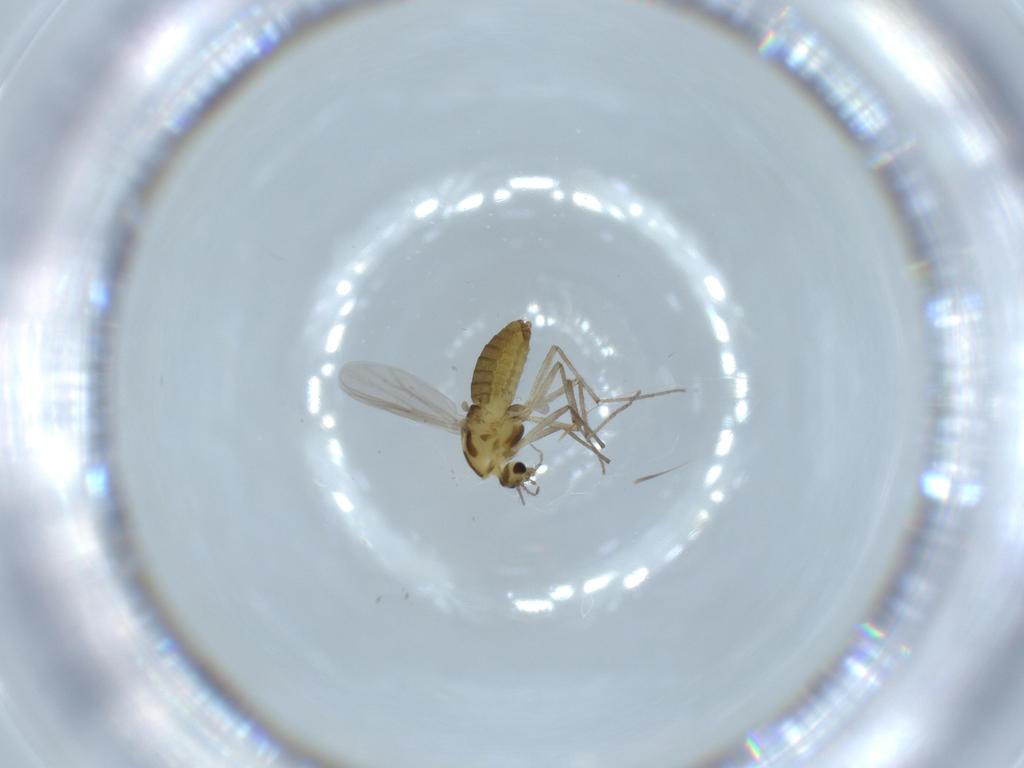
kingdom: Animalia
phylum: Arthropoda
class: Insecta
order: Diptera
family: Chironomidae
